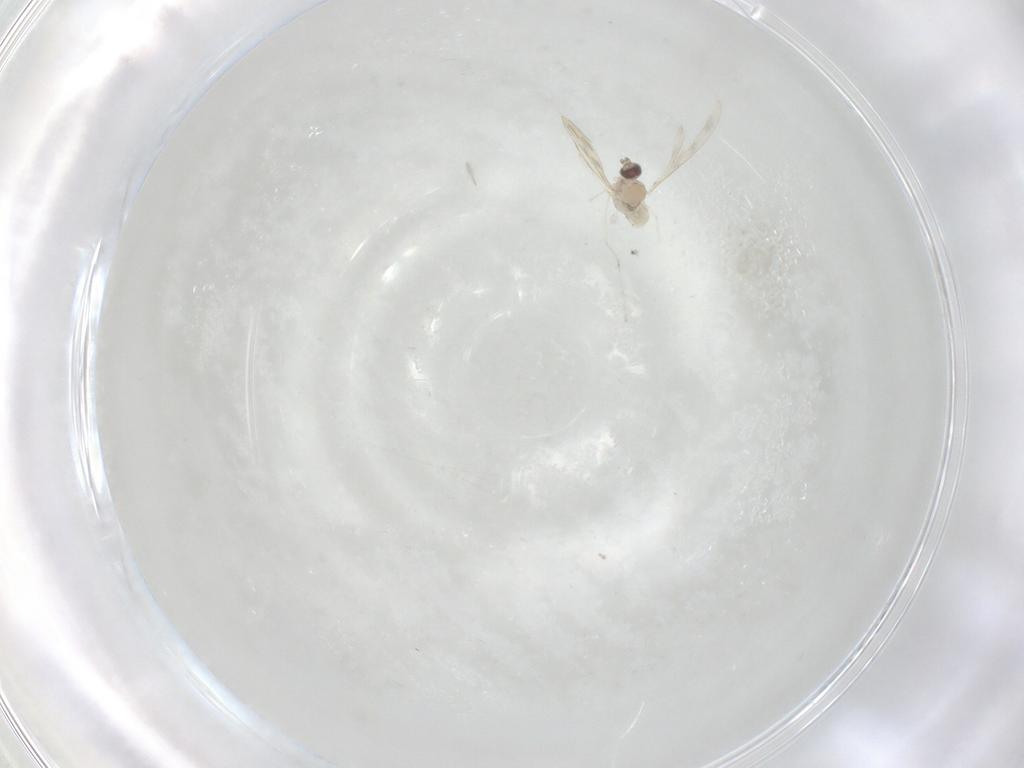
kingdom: Animalia
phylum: Arthropoda
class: Insecta
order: Diptera
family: Cecidomyiidae
